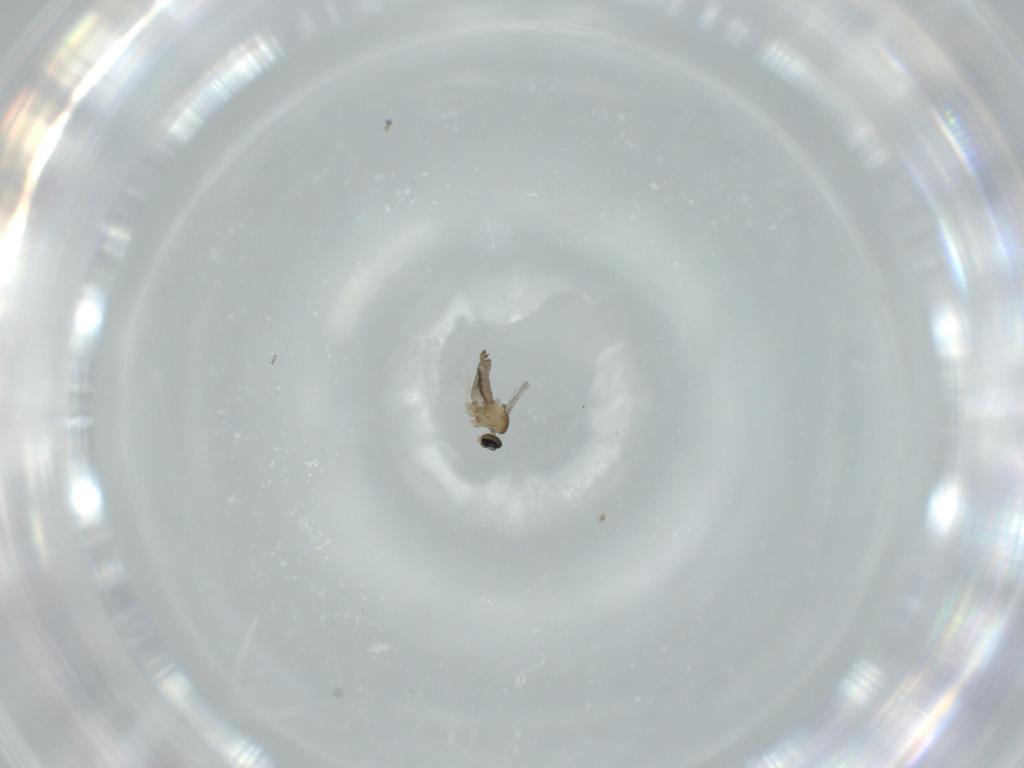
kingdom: Animalia
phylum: Arthropoda
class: Insecta
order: Diptera
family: Cecidomyiidae
